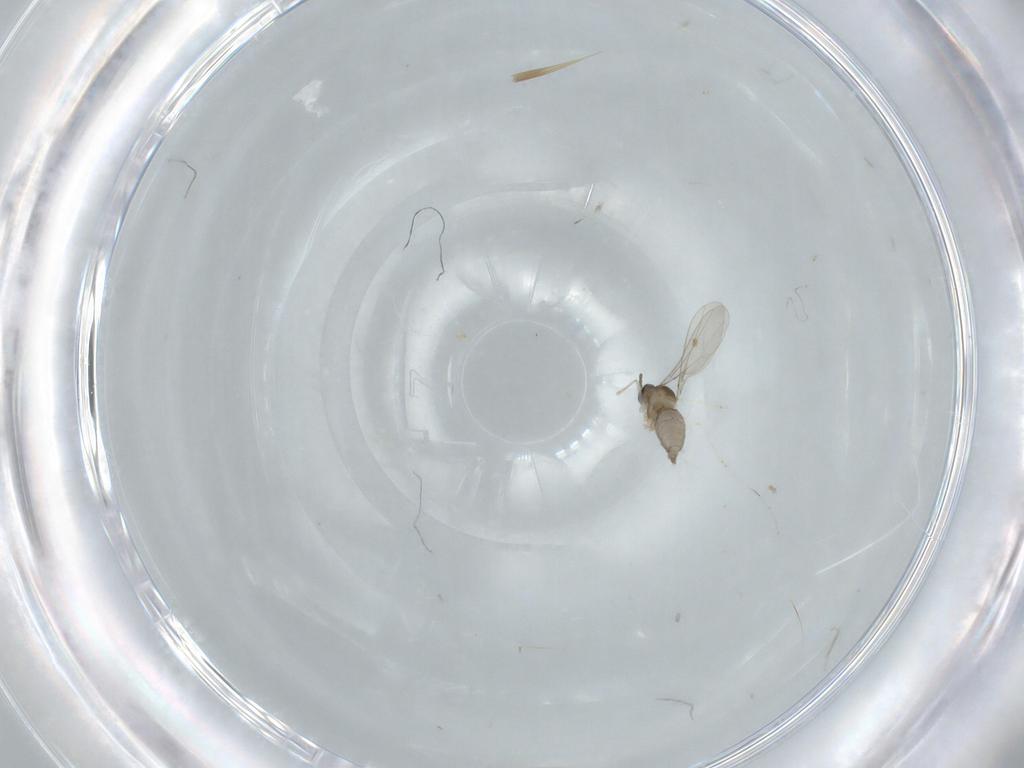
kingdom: Animalia
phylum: Arthropoda
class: Insecta
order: Diptera
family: Cecidomyiidae
